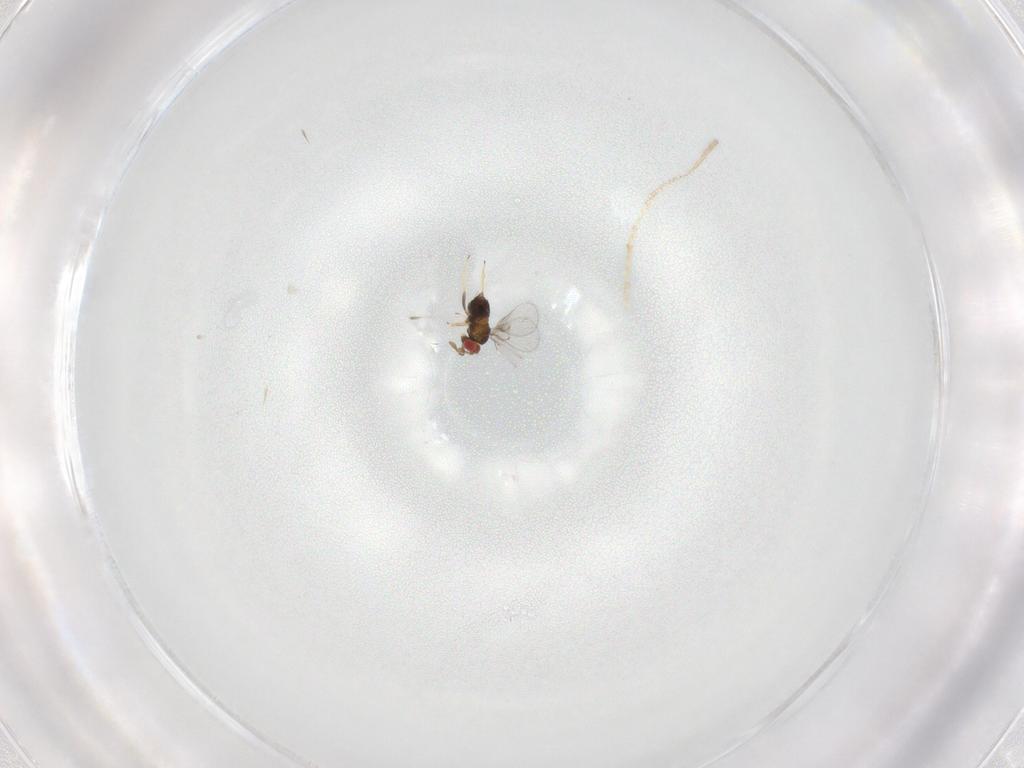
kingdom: Animalia
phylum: Arthropoda
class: Insecta
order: Hymenoptera
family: Trichogrammatidae
